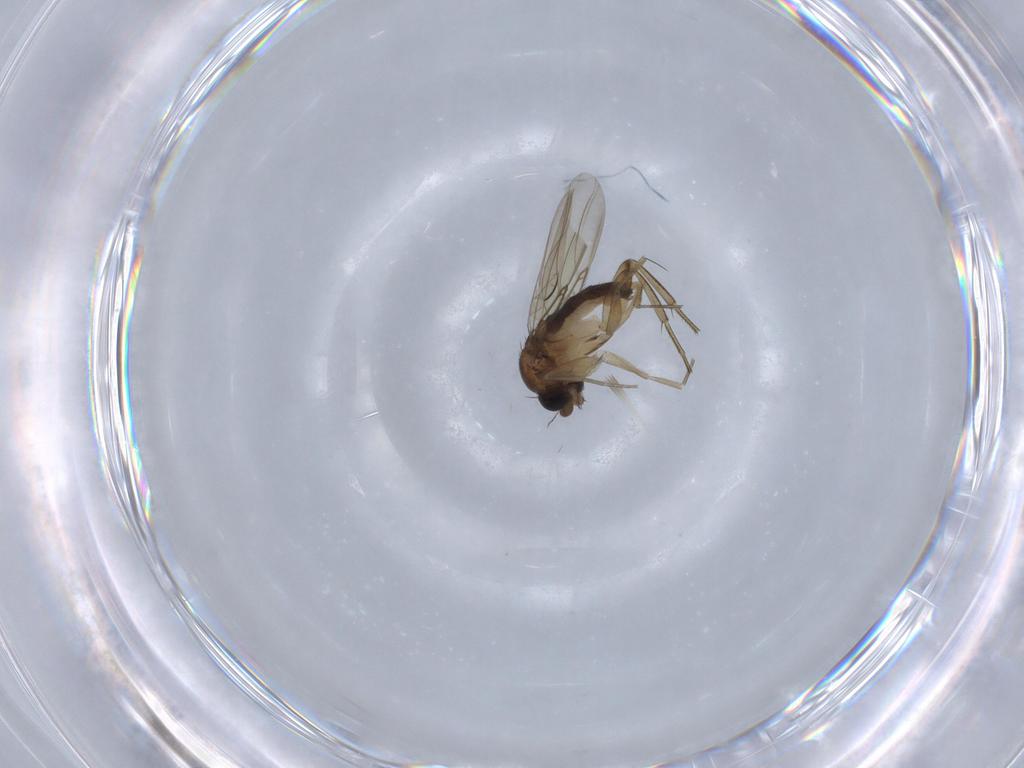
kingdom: Animalia
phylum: Arthropoda
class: Insecta
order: Diptera
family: Phoridae
